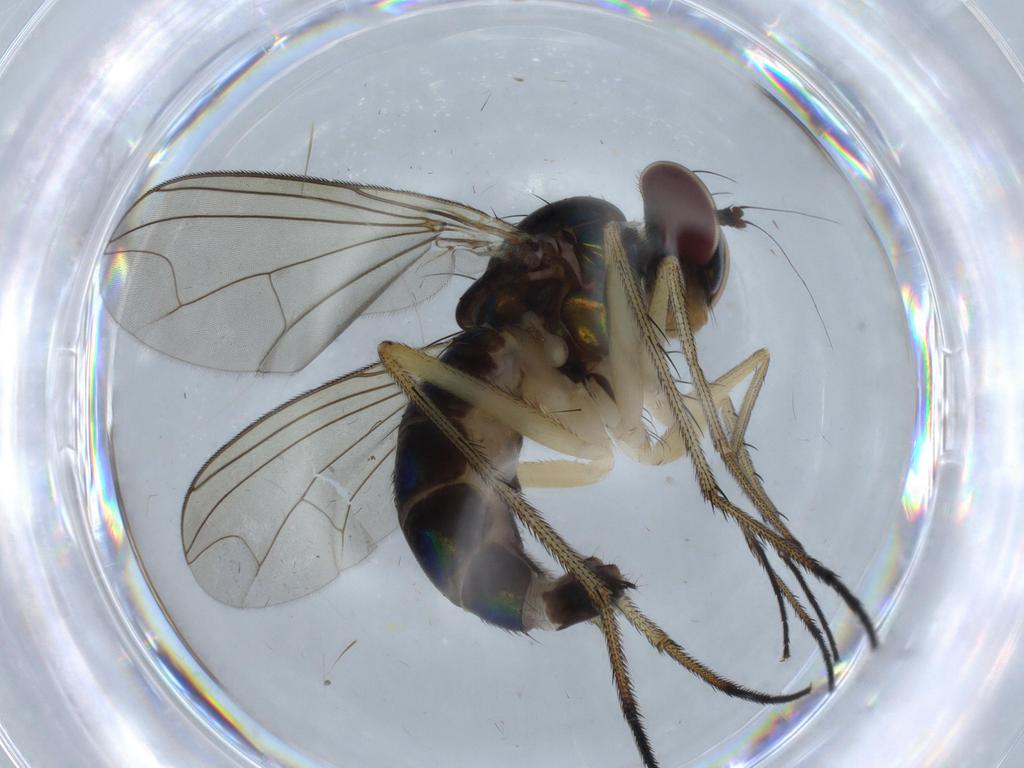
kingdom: Animalia
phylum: Arthropoda
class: Insecta
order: Diptera
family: Dolichopodidae
